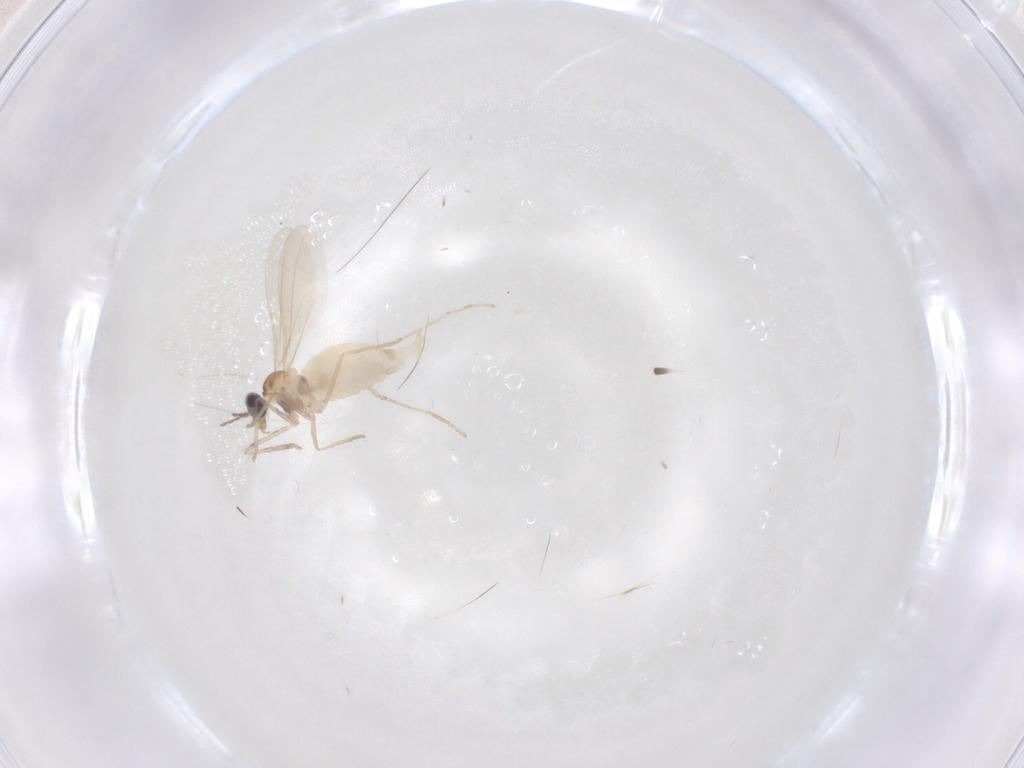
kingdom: Animalia
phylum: Arthropoda
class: Insecta
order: Diptera
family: Cecidomyiidae
